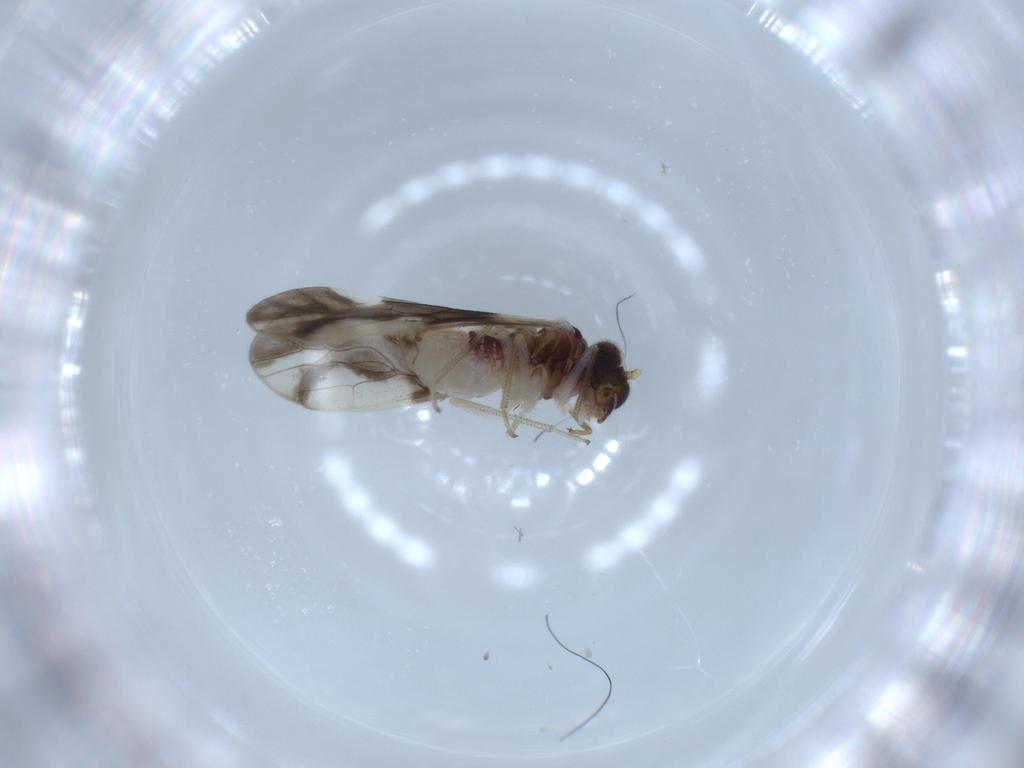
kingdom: Animalia
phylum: Arthropoda
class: Insecta
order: Psocodea
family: Caeciliusidae
